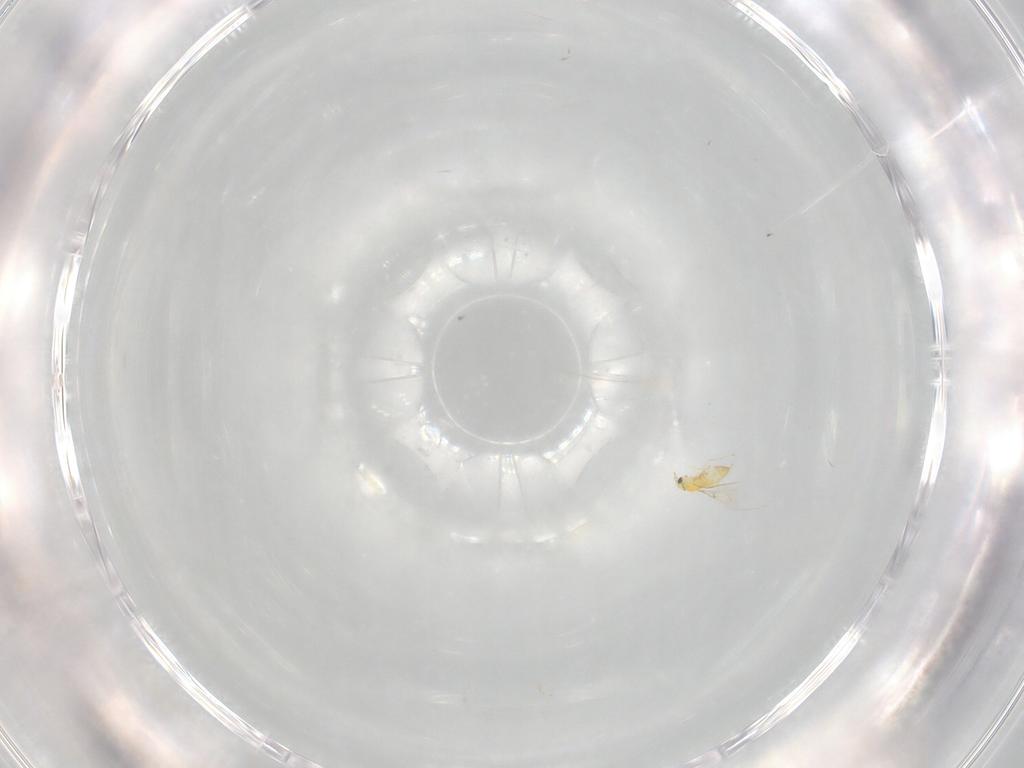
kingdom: Animalia
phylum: Arthropoda
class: Insecta
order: Hymenoptera
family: Trichogrammatidae
